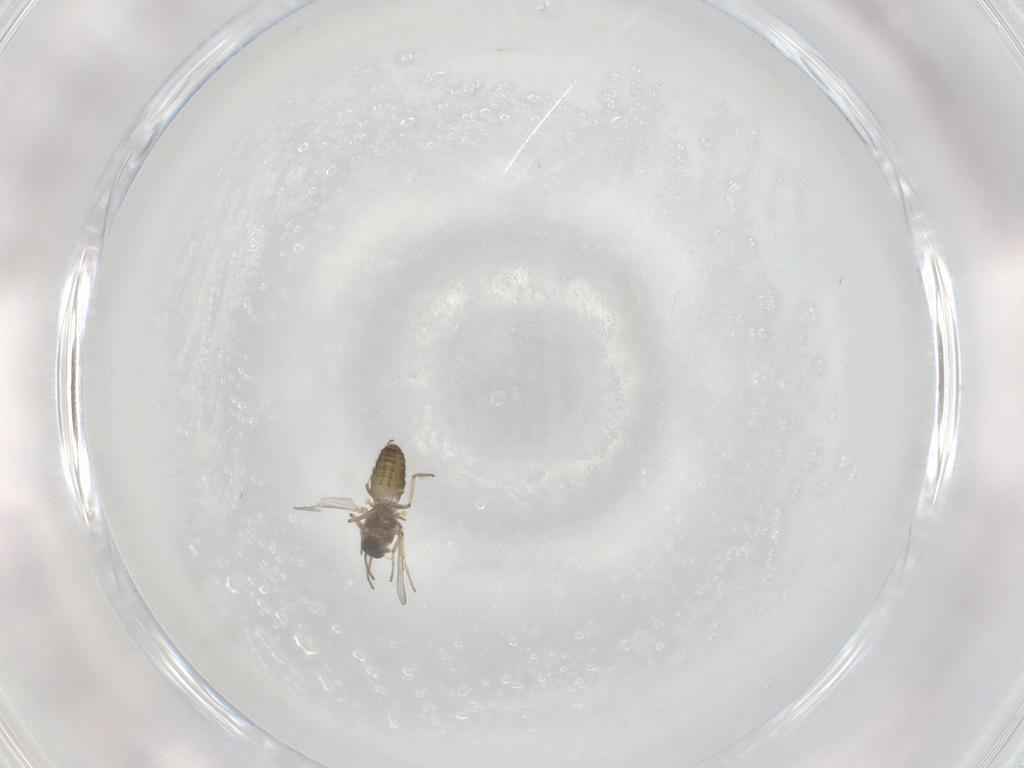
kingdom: Animalia
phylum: Arthropoda
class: Insecta
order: Diptera
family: Ceratopogonidae
